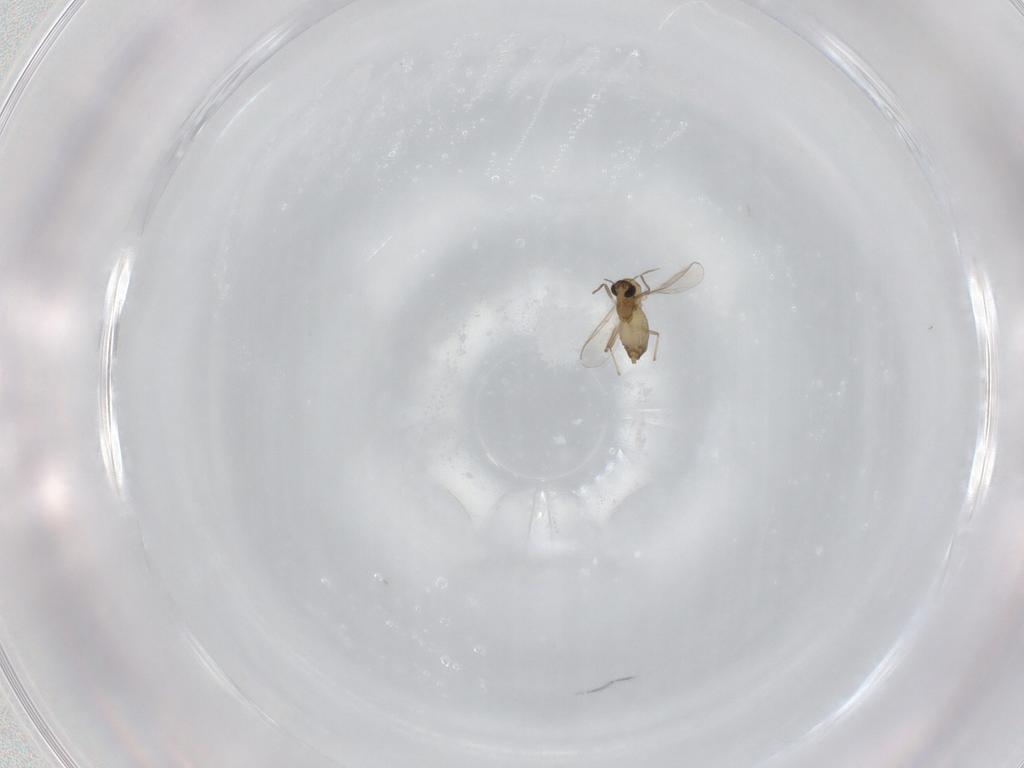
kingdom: Animalia
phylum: Arthropoda
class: Insecta
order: Diptera
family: Chironomidae
